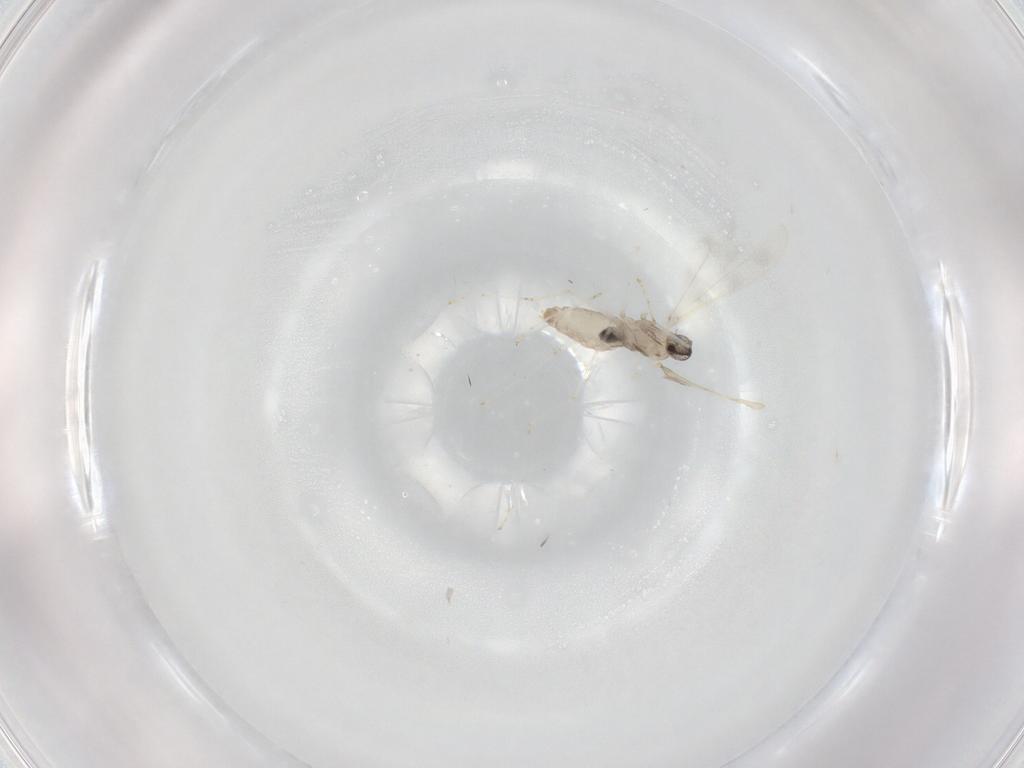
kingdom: Animalia
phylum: Arthropoda
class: Insecta
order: Diptera
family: Cecidomyiidae
